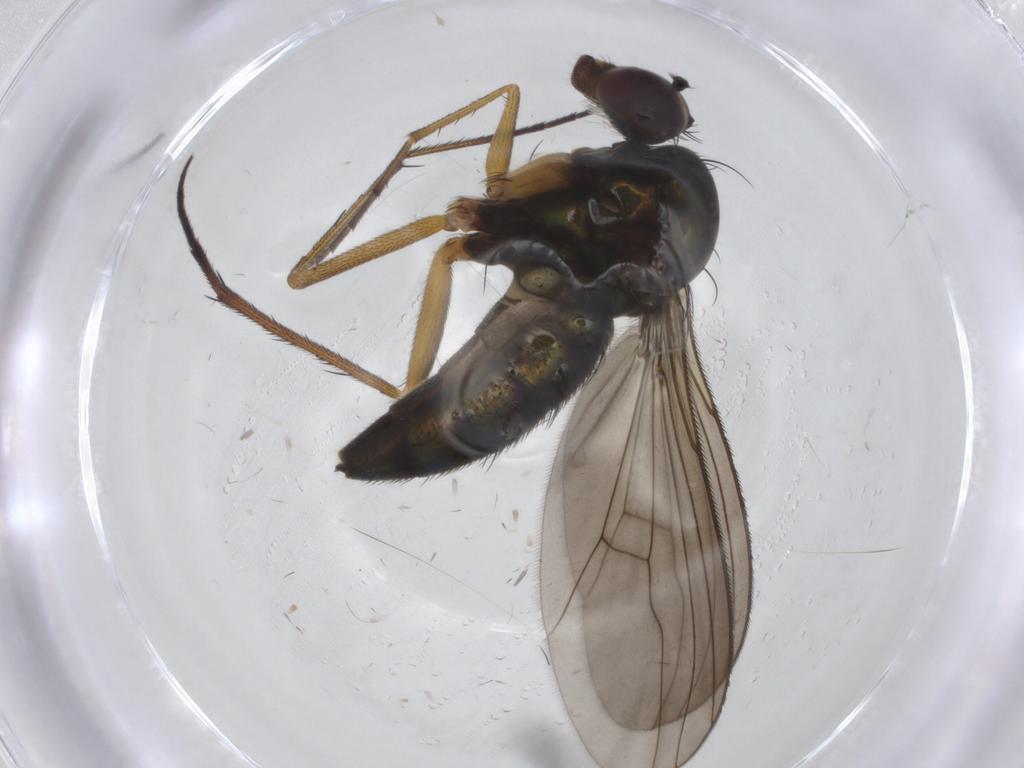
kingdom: Animalia
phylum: Arthropoda
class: Insecta
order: Diptera
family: Dolichopodidae
